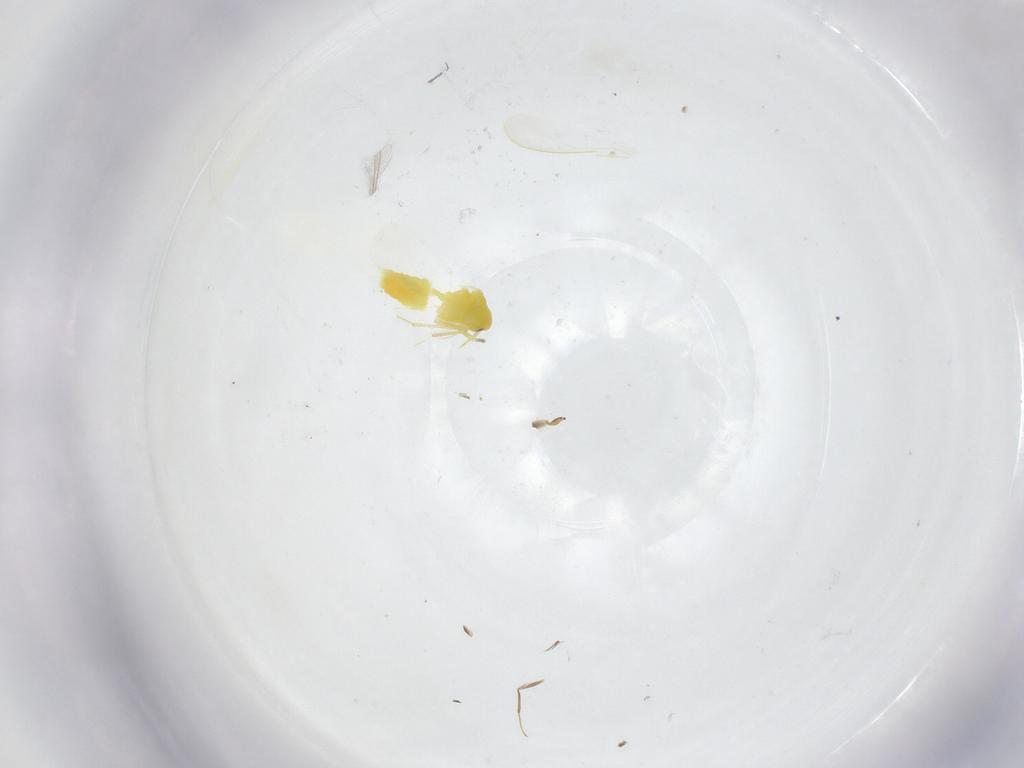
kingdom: Animalia
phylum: Arthropoda
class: Insecta
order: Hemiptera
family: Aleyrodidae
